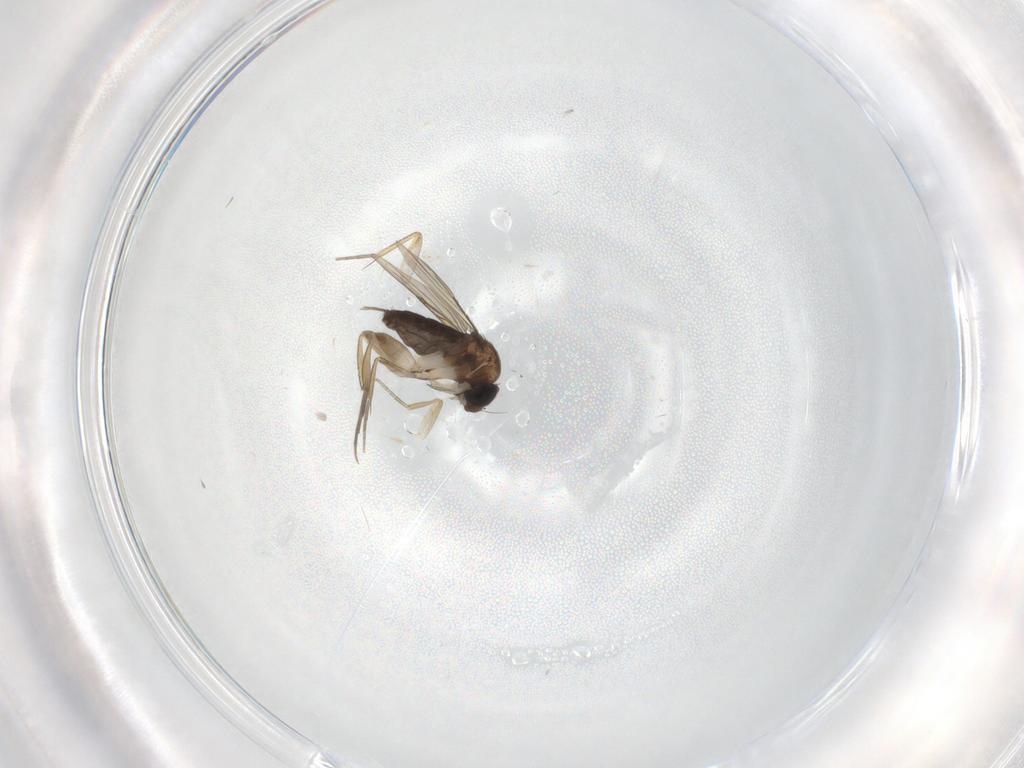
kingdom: Animalia
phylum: Arthropoda
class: Insecta
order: Diptera
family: Phoridae
